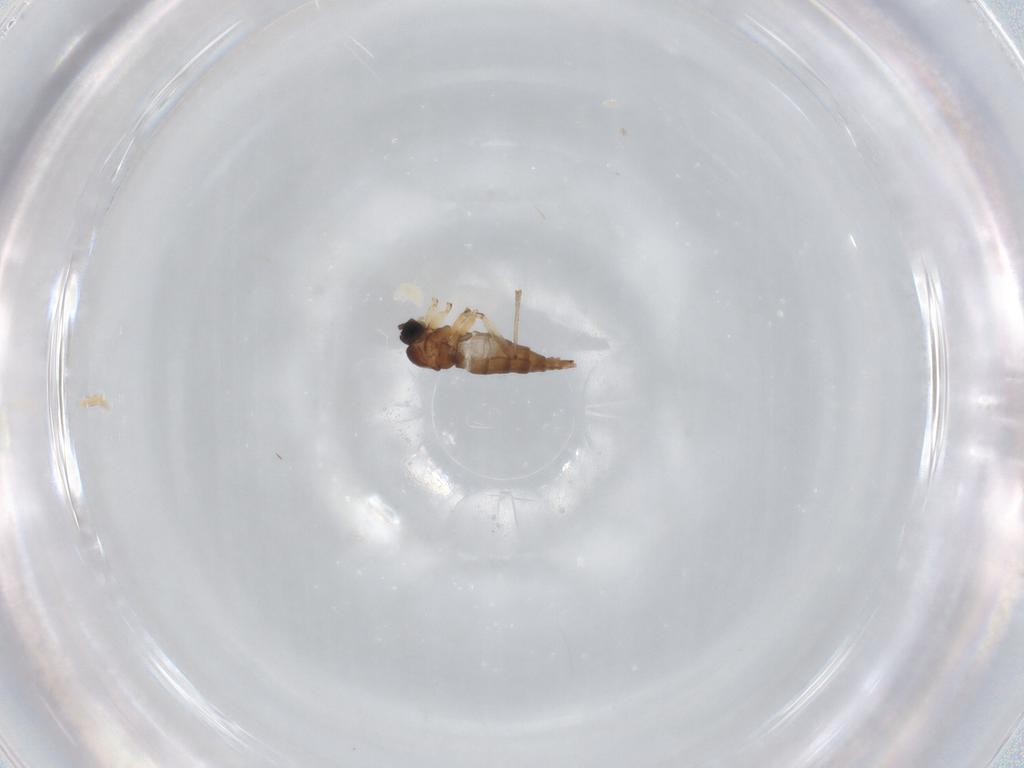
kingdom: Animalia
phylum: Arthropoda
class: Insecta
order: Diptera
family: Sciaridae
